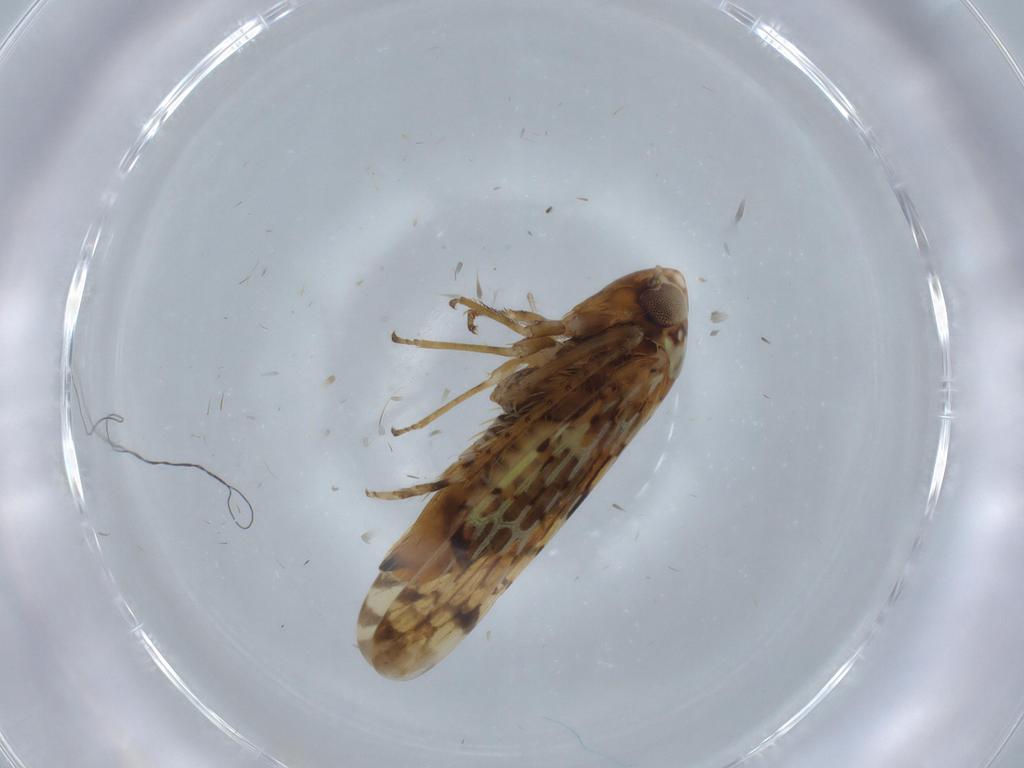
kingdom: Animalia
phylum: Arthropoda
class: Insecta
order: Hemiptera
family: Cicadellidae
